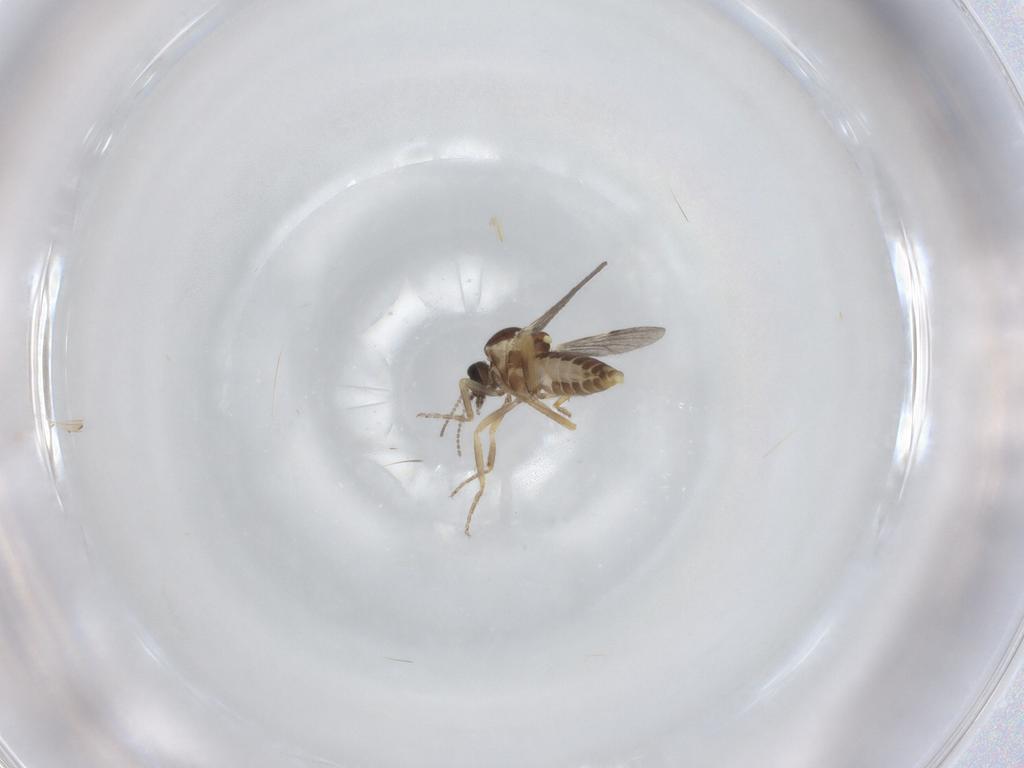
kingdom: Animalia
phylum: Arthropoda
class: Insecta
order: Diptera
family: Ceratopogonidae
